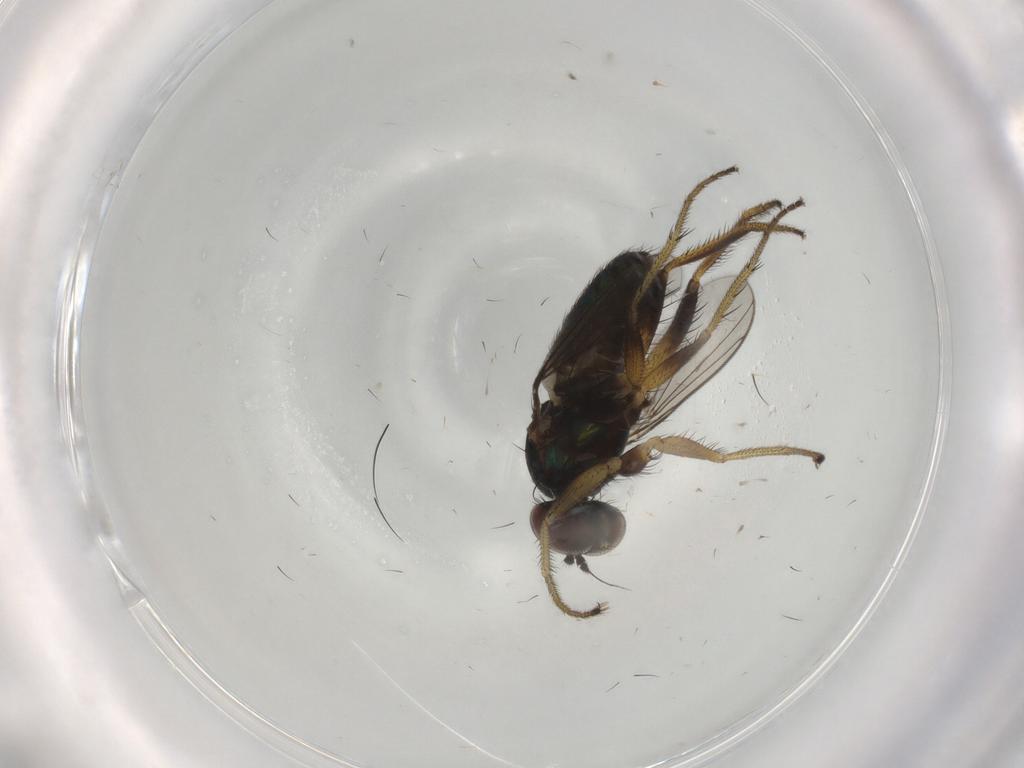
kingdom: Animalia
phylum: Arthropoda
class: Insecta
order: Diptera
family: Dolichopodidae
